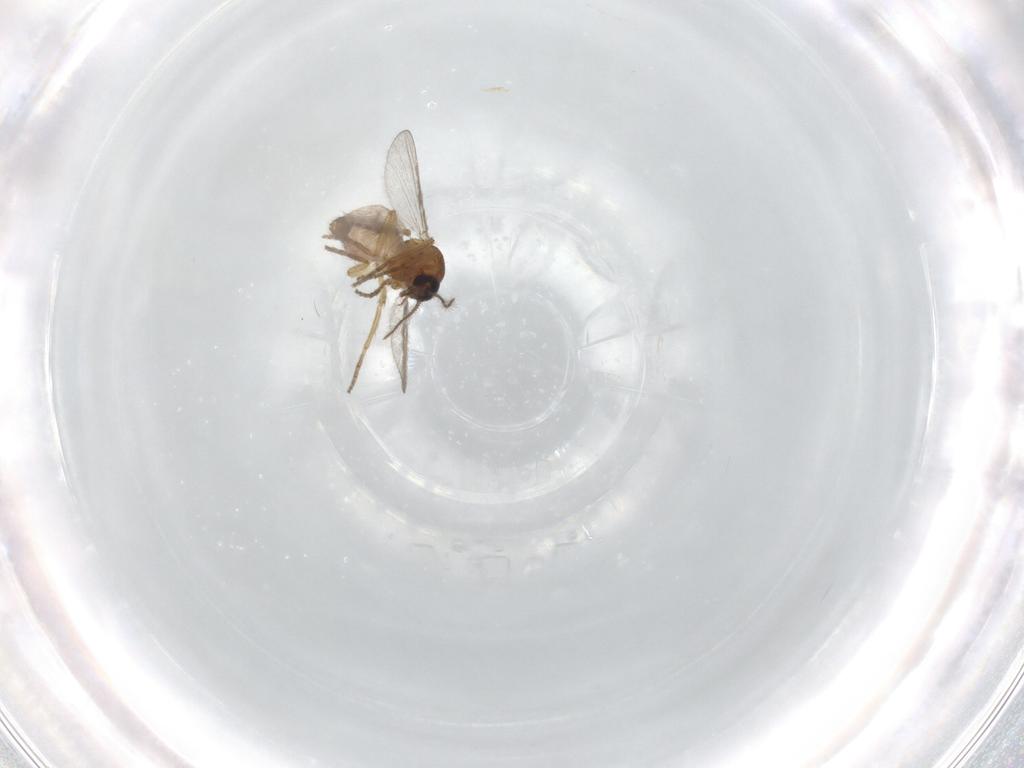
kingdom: Animalia
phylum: Arthropoda
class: Insecta
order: Diptera
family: Ceratopogonidae
